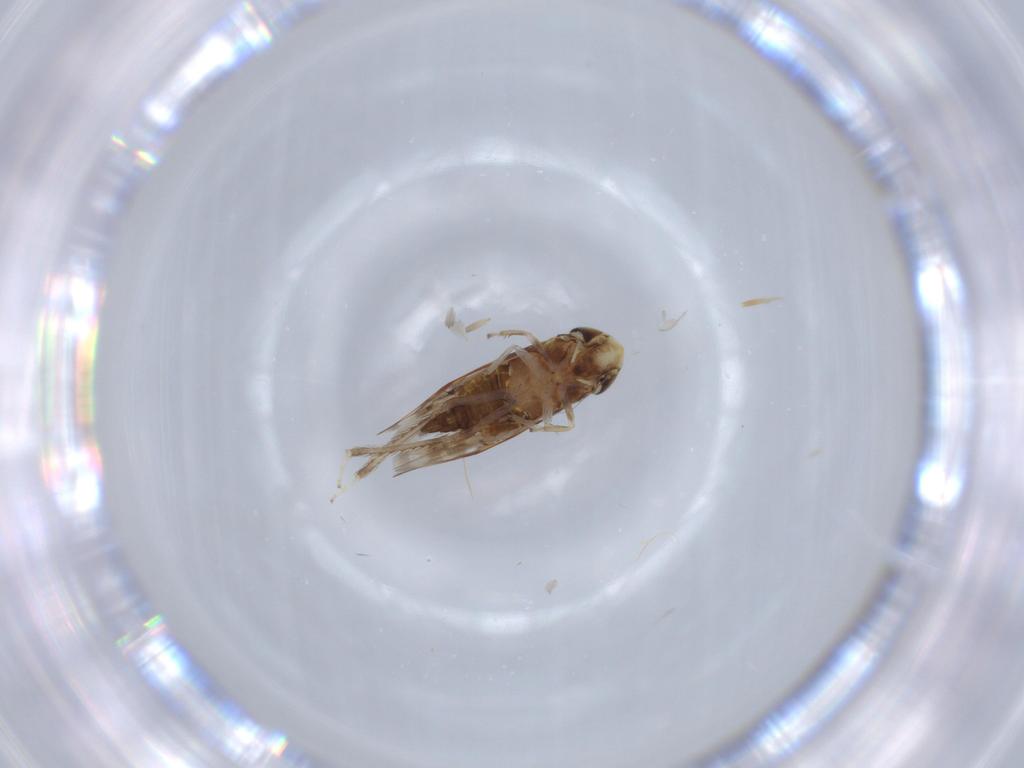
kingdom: Animalia
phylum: Arthropoda
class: Insecta
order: Hemiptera
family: Cicadellidae
